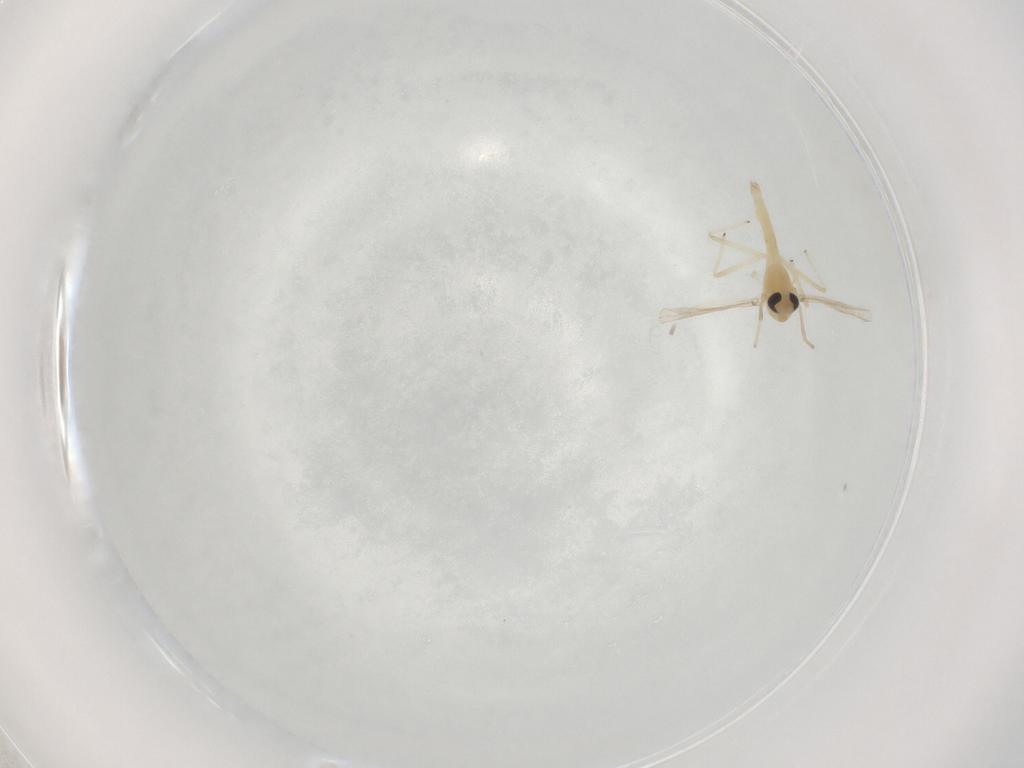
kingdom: Animalia
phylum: Arthropoda
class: Insecta
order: Diptera
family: Chironomidae
